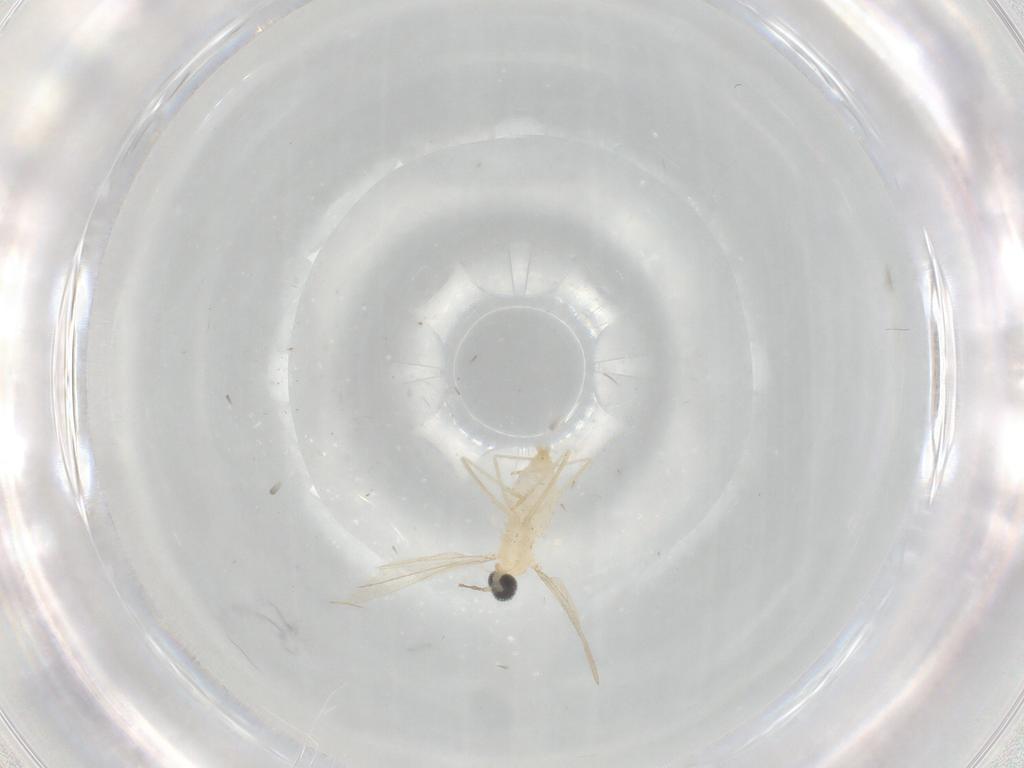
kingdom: Animalia
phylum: Arthropoda
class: Insecta
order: Diptera
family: Cecidomyiidae
